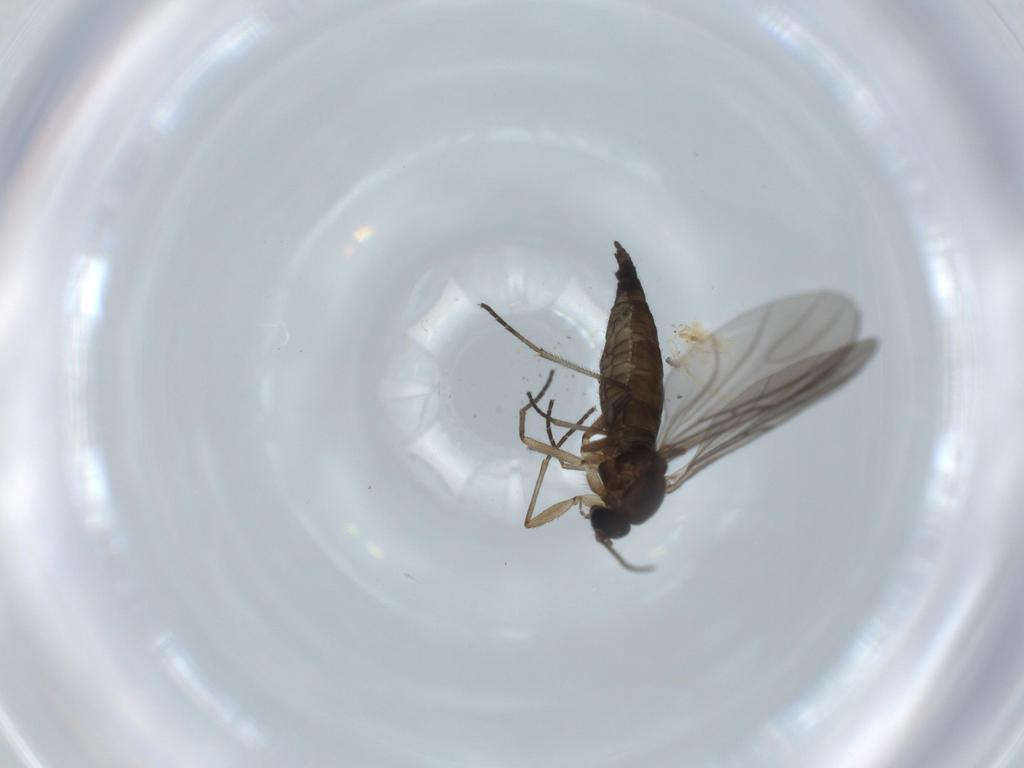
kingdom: Animalia
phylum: Arthropoda
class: Insecta
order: Diptera
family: Sciaridae
